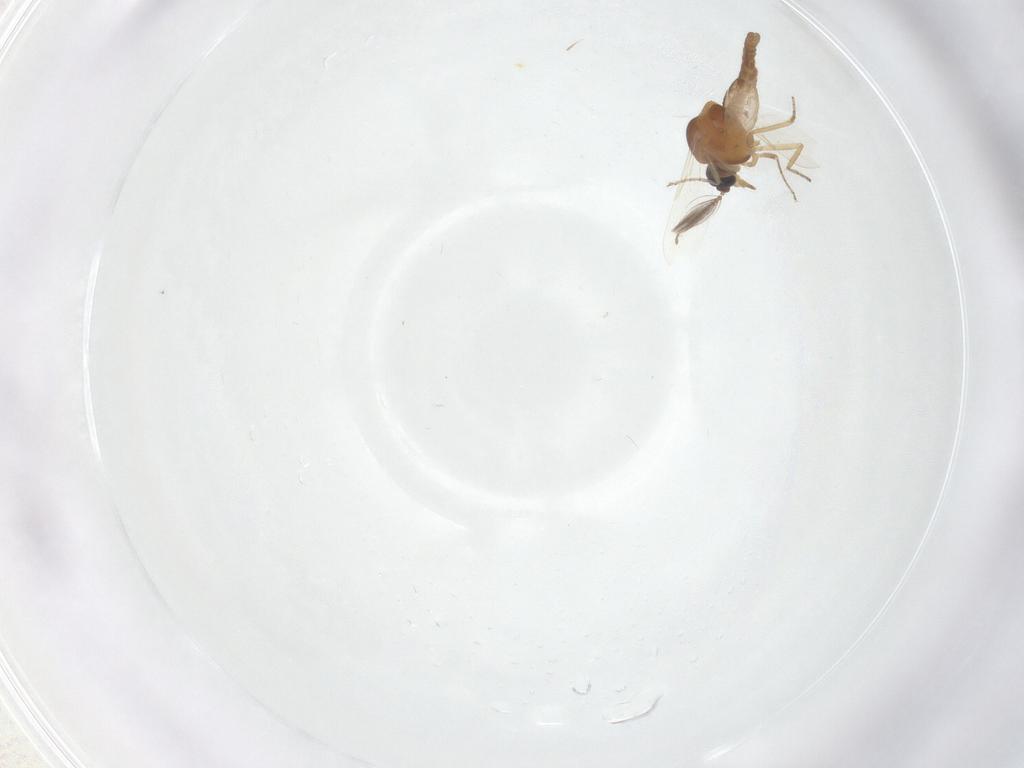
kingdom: Animalia
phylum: Arthropoda
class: Insecta
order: Diptera
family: Ceratopogonidae
